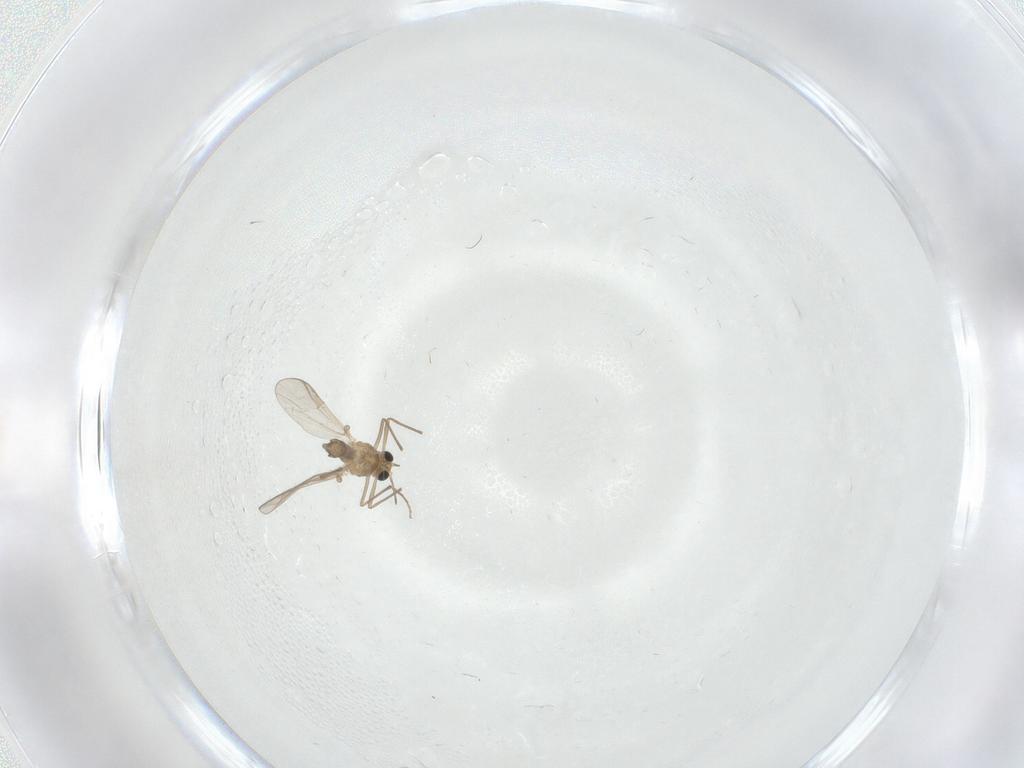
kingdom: Animalia
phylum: Arthropoda
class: Insecta
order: Diptera
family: Chironomidae
